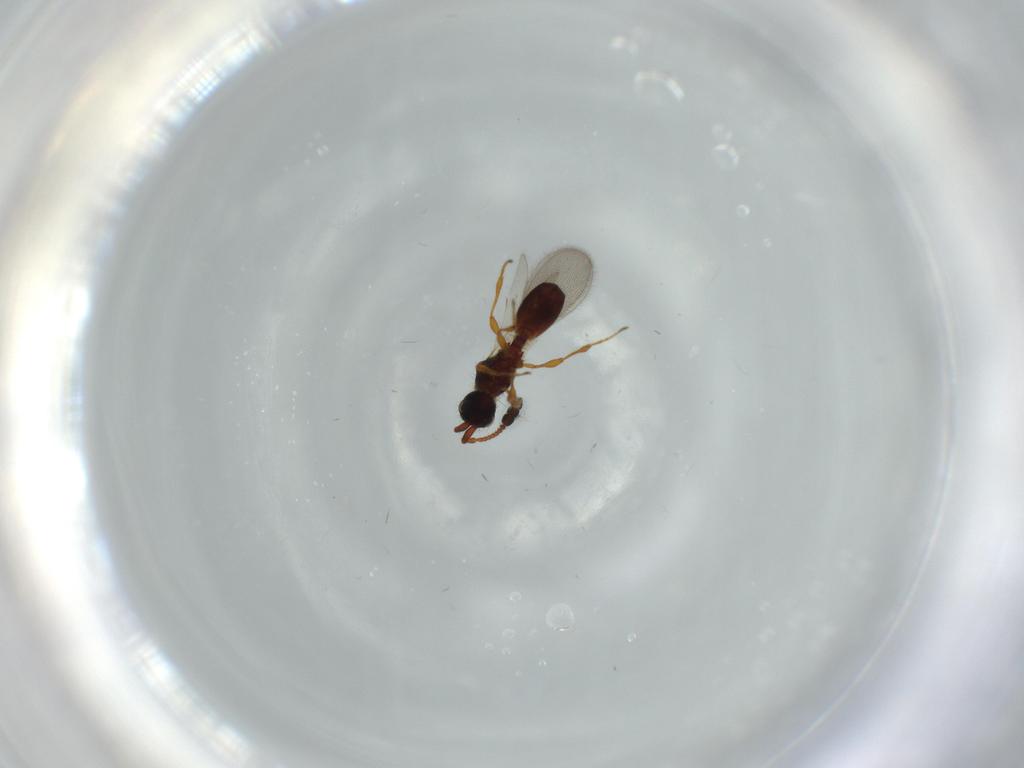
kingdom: Animalia
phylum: Arthropoda
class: Insecta
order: Hymenoptera
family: Diapriidae
